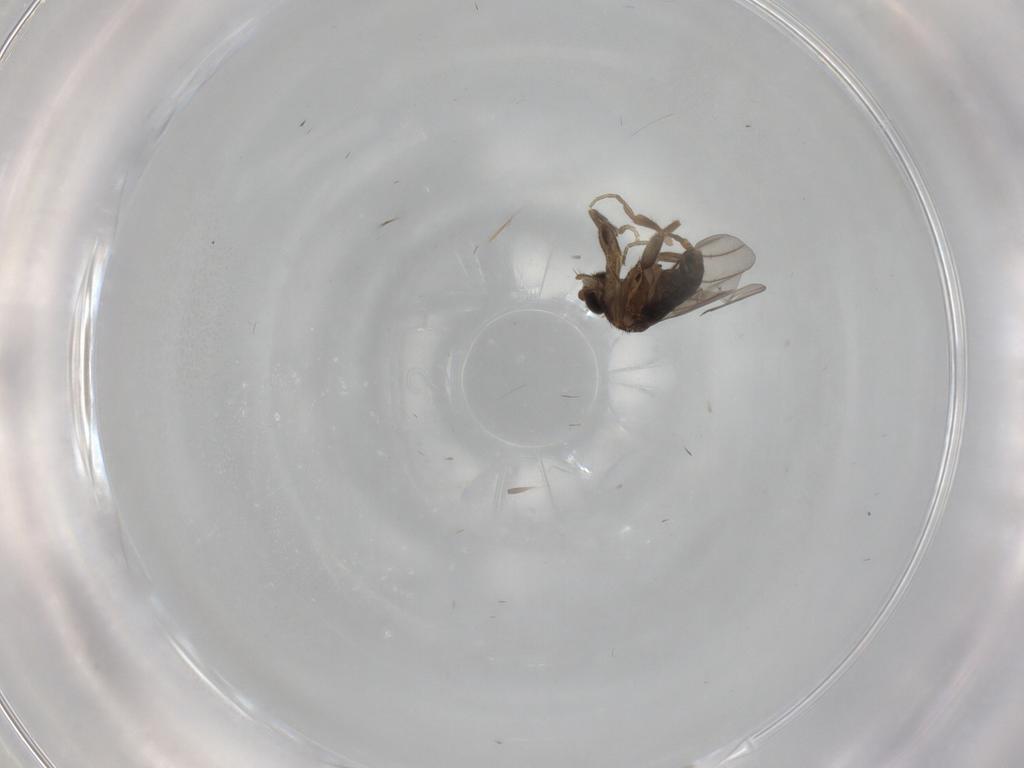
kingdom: Animalia
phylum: Arthropoda
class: Insecta
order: Diptera
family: Phoridae
